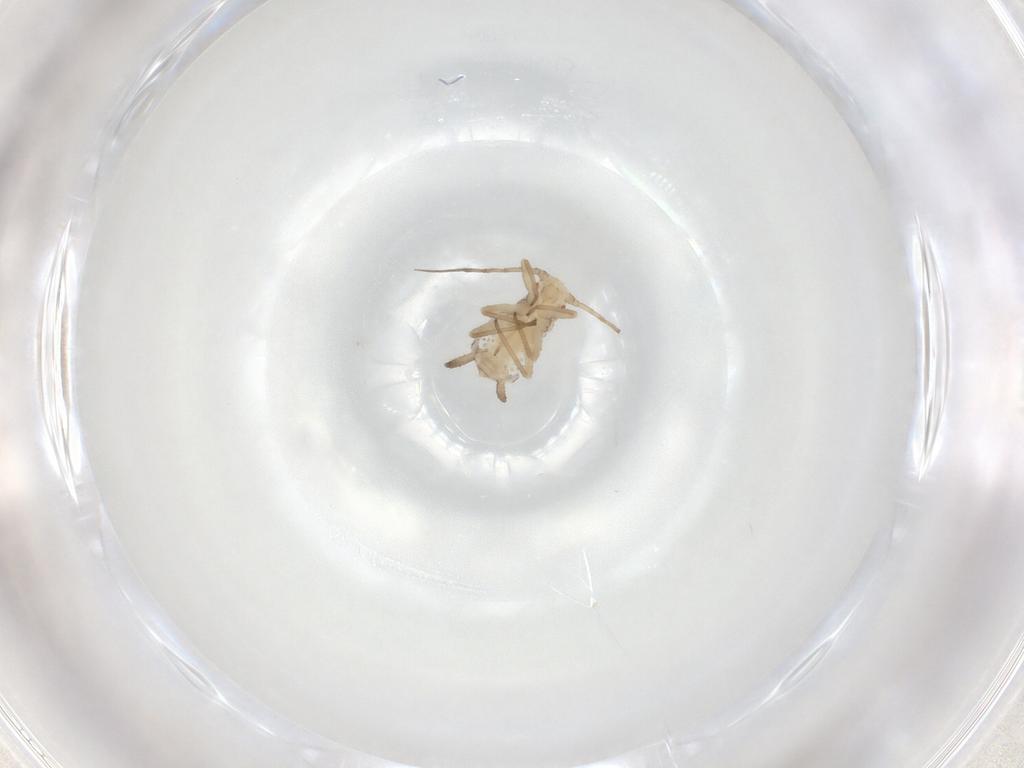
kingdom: Animalia
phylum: Arthropoda
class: Insecta
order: Hemiptera
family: Aphididae
